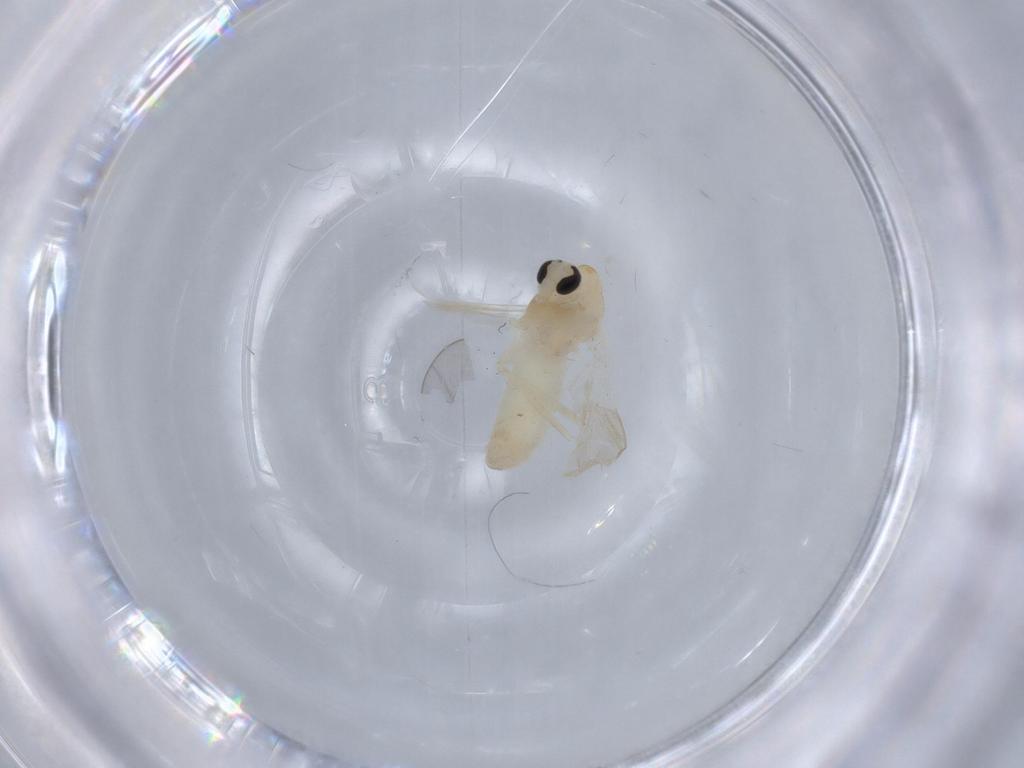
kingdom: Animalia
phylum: Arthropoda
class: Insecta
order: Diptera
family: Chironomidae
